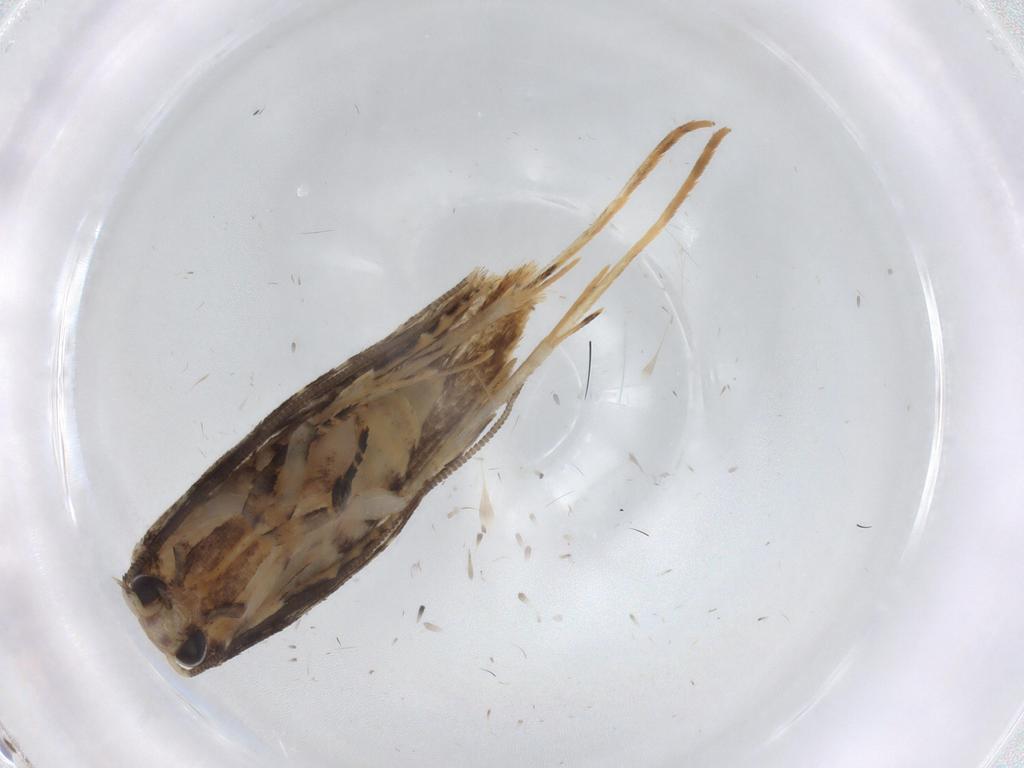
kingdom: Animalia
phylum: Arthropoda
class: Insecta
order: Lepidoptera
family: Tineidae
